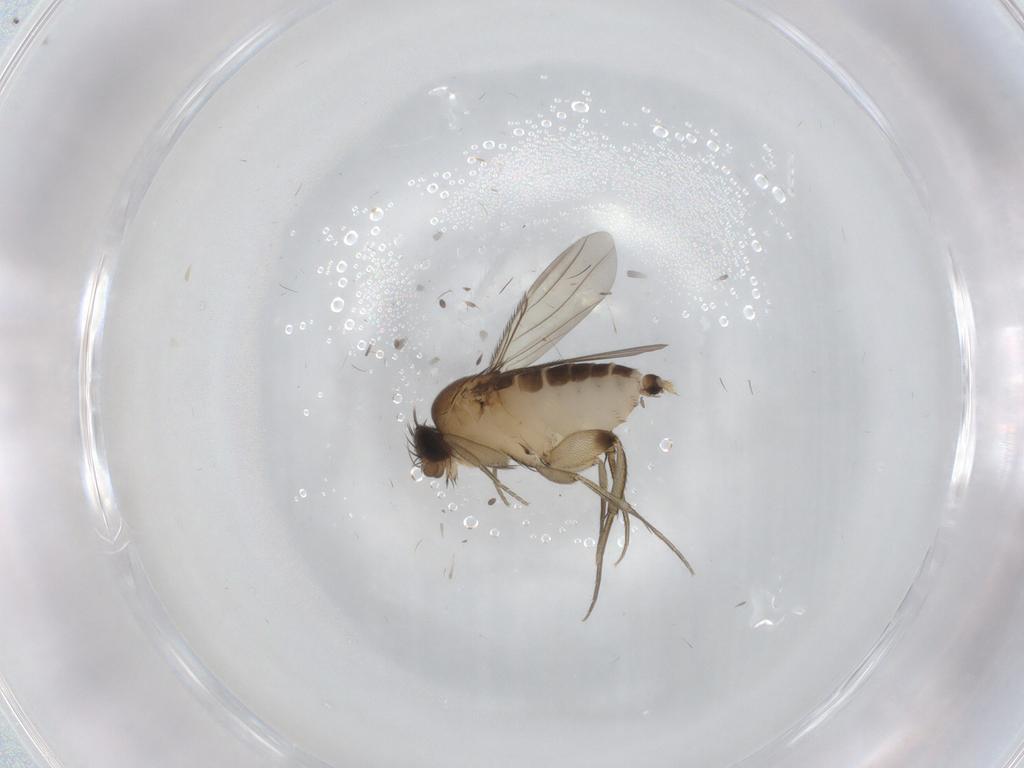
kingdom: Animalia
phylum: Arthropoda
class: Insecta
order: Diptera
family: Phoridae
